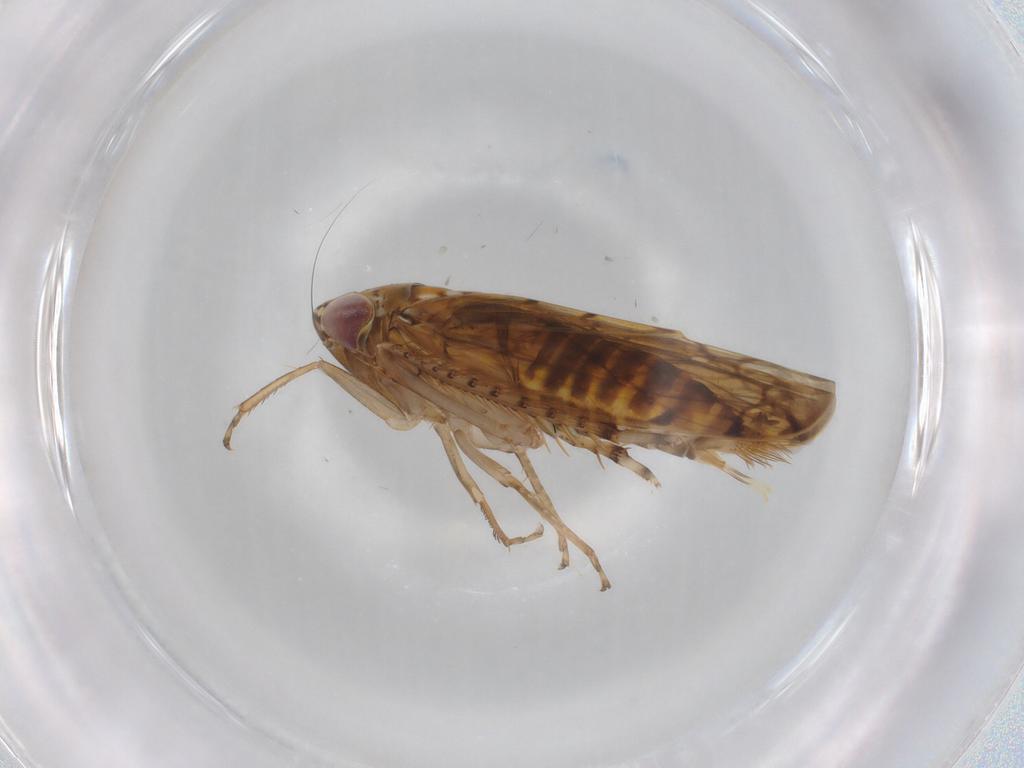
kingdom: Animalia
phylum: Arthropoda
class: Insecta
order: Hemiptera
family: Cicadellidae
